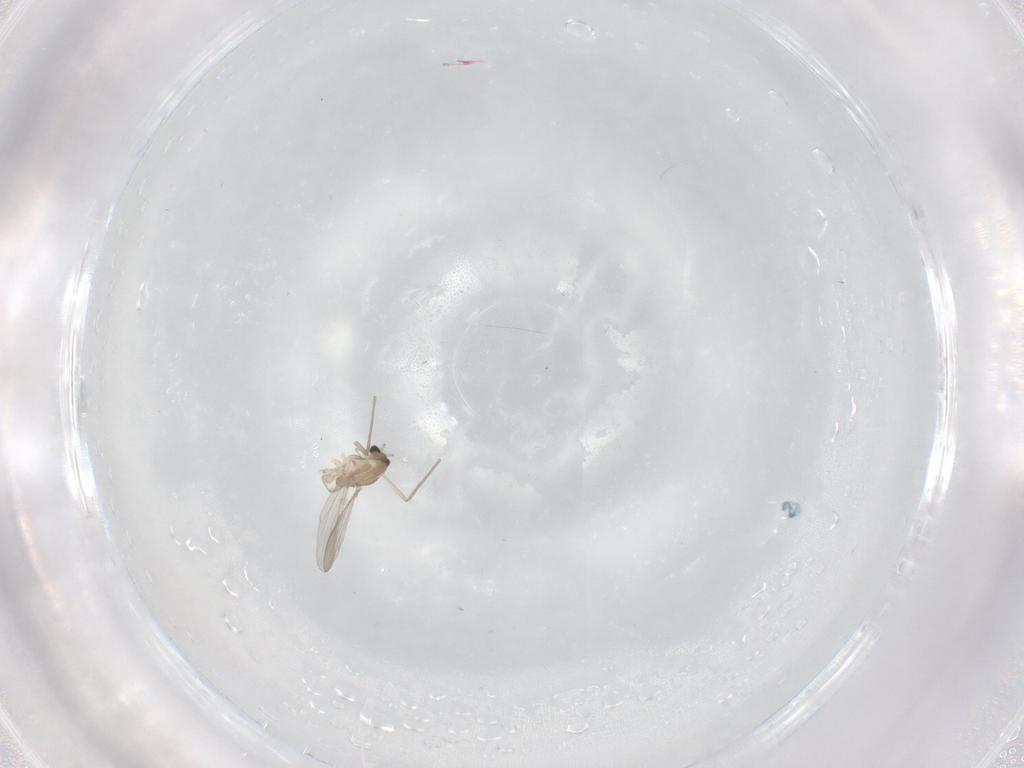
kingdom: Animalia
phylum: Arthropoda
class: Insecta
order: Diptera
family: Chironomidae
